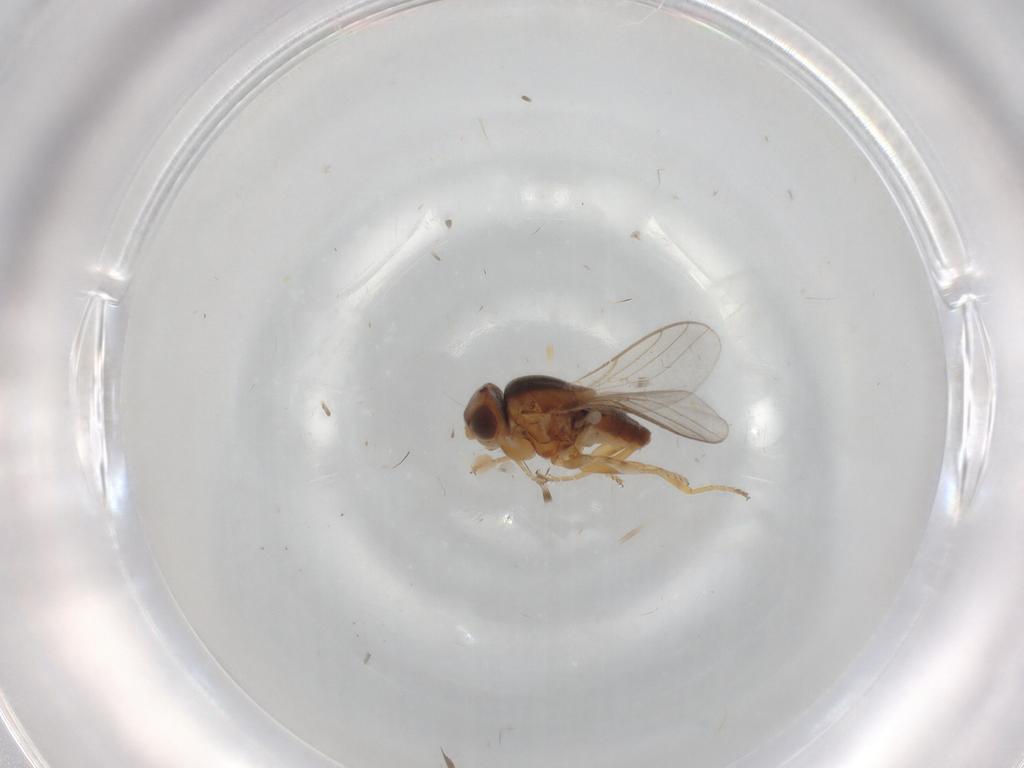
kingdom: Animalia
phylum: Arthropoda
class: Insecta
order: Diptera
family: Chloropidae
